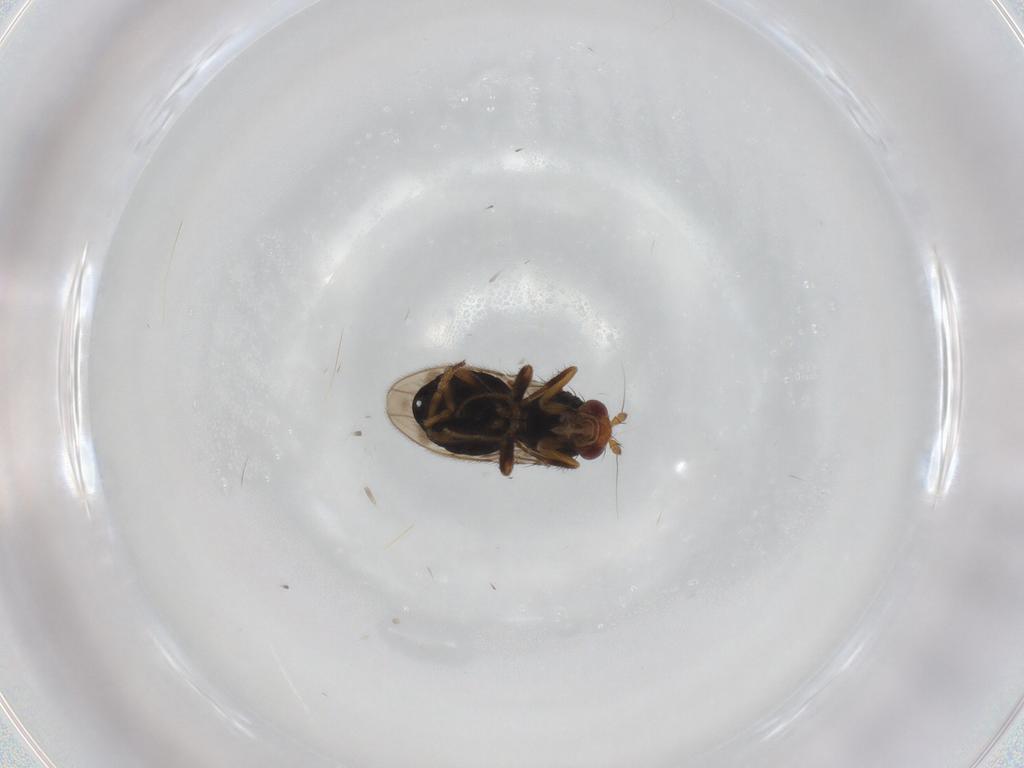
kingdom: Animalia
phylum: Arthropoda
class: Insecta
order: Diptera
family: Sphaeroceridae
